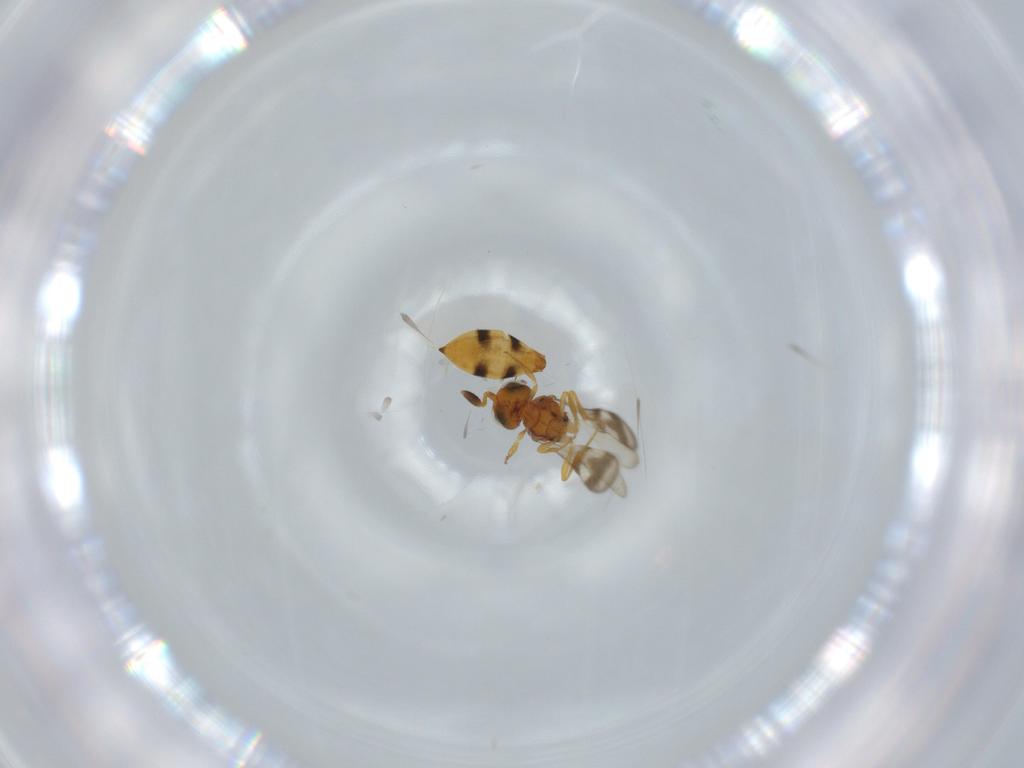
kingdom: Animalia
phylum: Arthropoda
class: Insecta
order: Hymenoptera
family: Scelionidae
